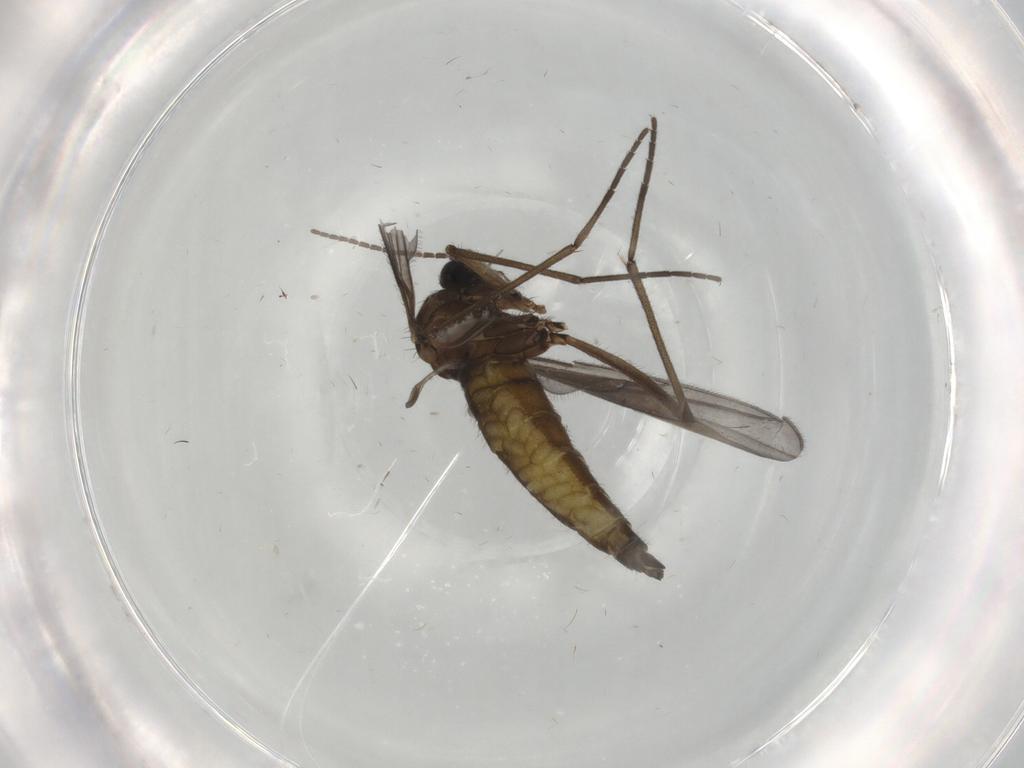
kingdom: Animalia
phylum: Arthropoda
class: Insecta
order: Diptera
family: Sciaridae
